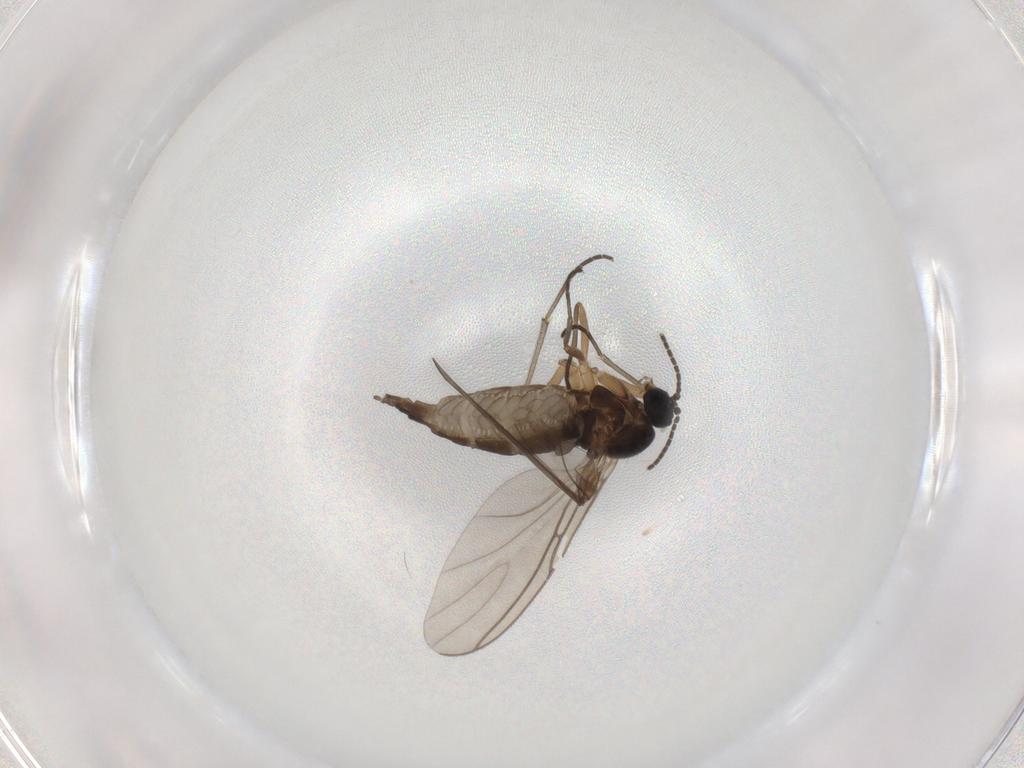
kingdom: Animalia
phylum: Arthropoda
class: Insecta
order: Diptera
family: Sciaridae
